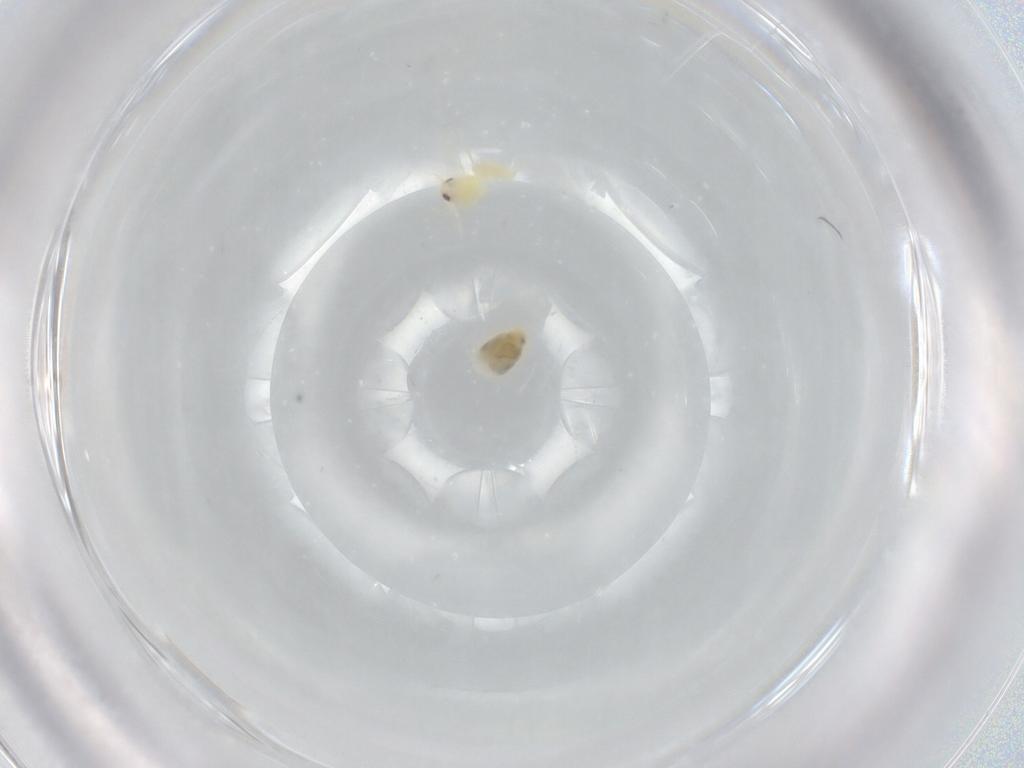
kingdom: Animalia
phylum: Arthropoda
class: Insecta
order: Hemiptera
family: Aleyrodidae
